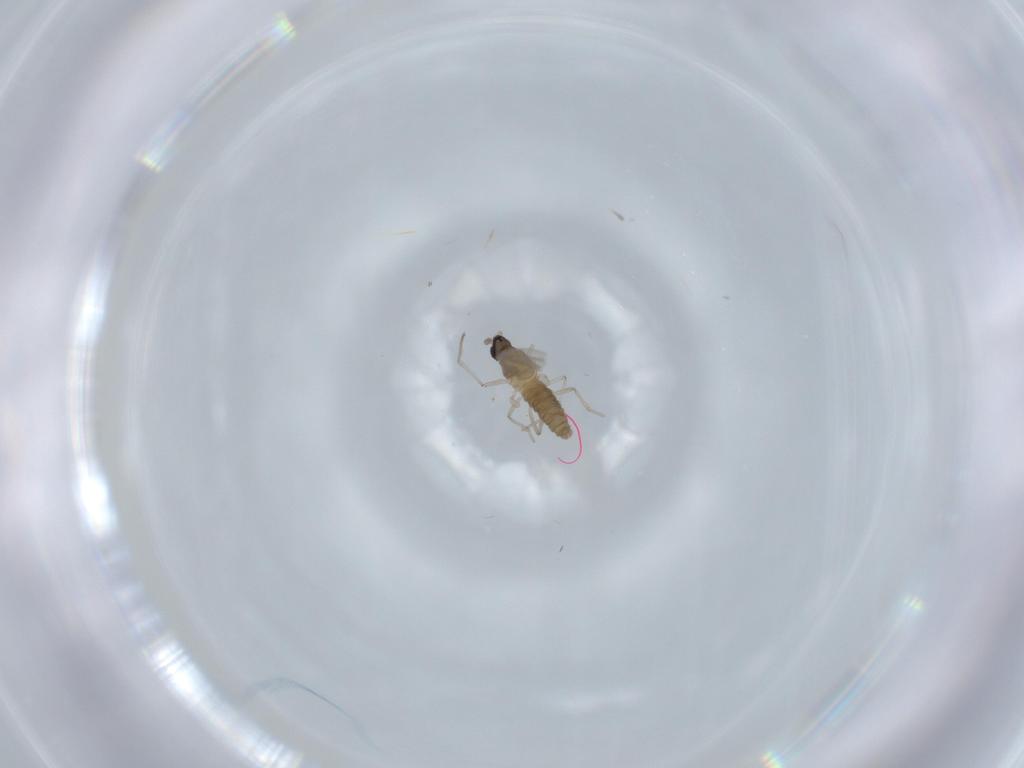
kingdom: Animalia
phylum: Arthropoda
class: Insecta
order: Diptera
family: Cecidomyiidae
